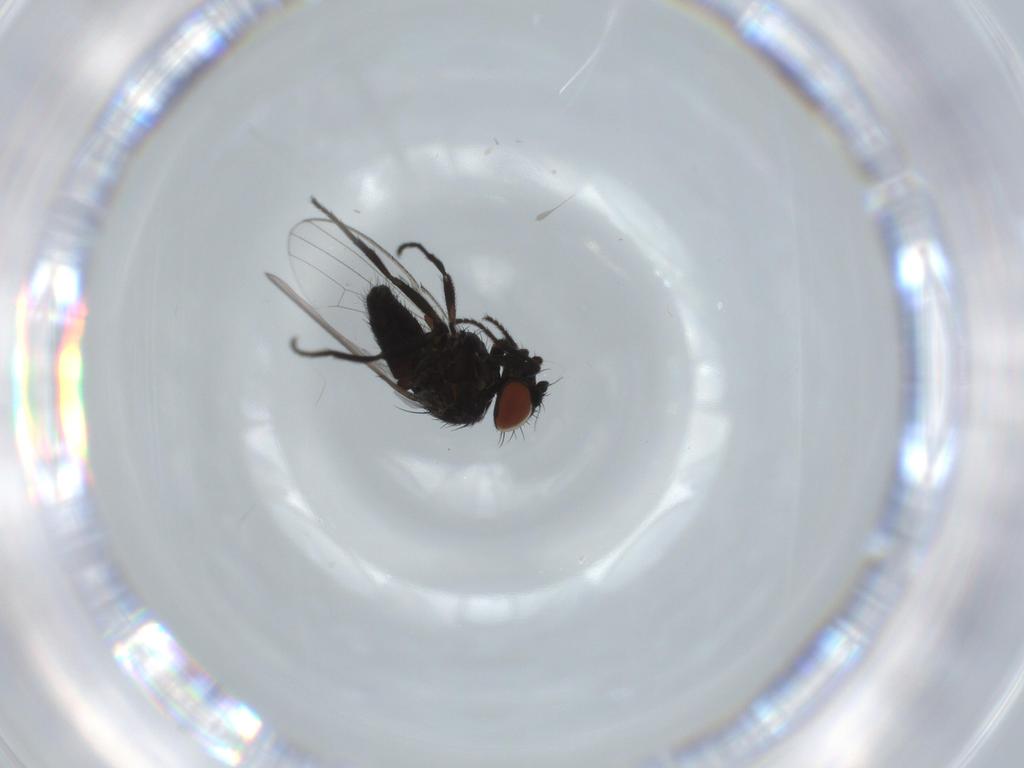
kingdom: Animalia
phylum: Arthropoda
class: Insecta
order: Diptera
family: Milichiidae
